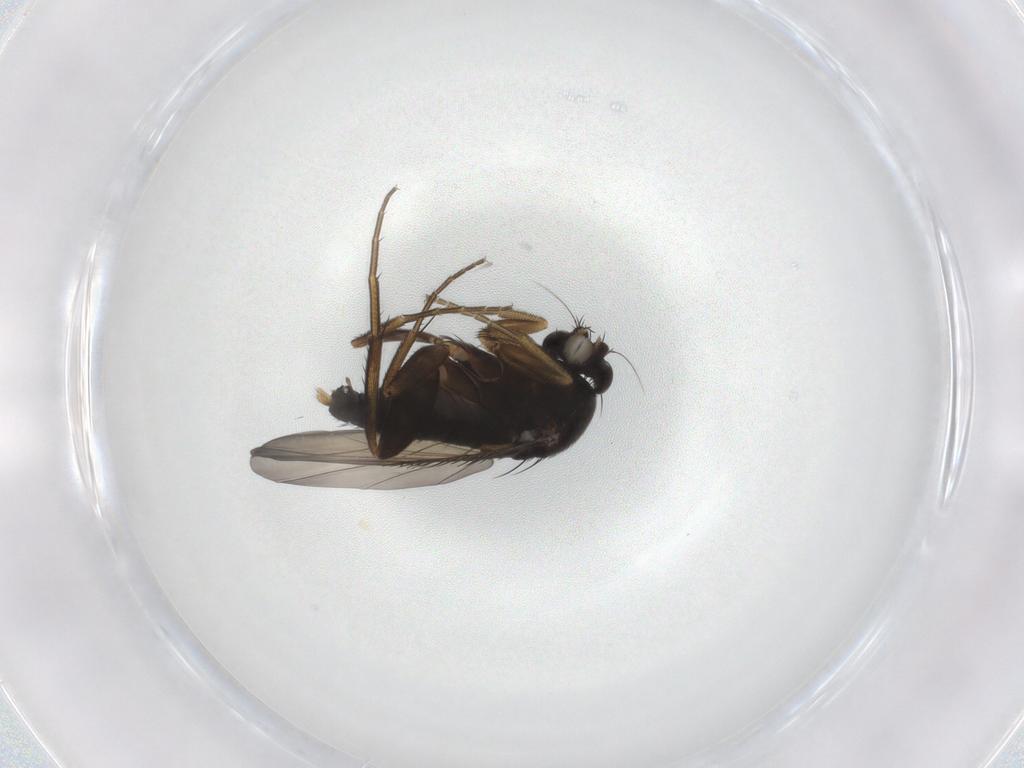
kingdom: Animalia
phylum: Arthropoda
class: Insecta
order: Diptera
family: Phoridae
